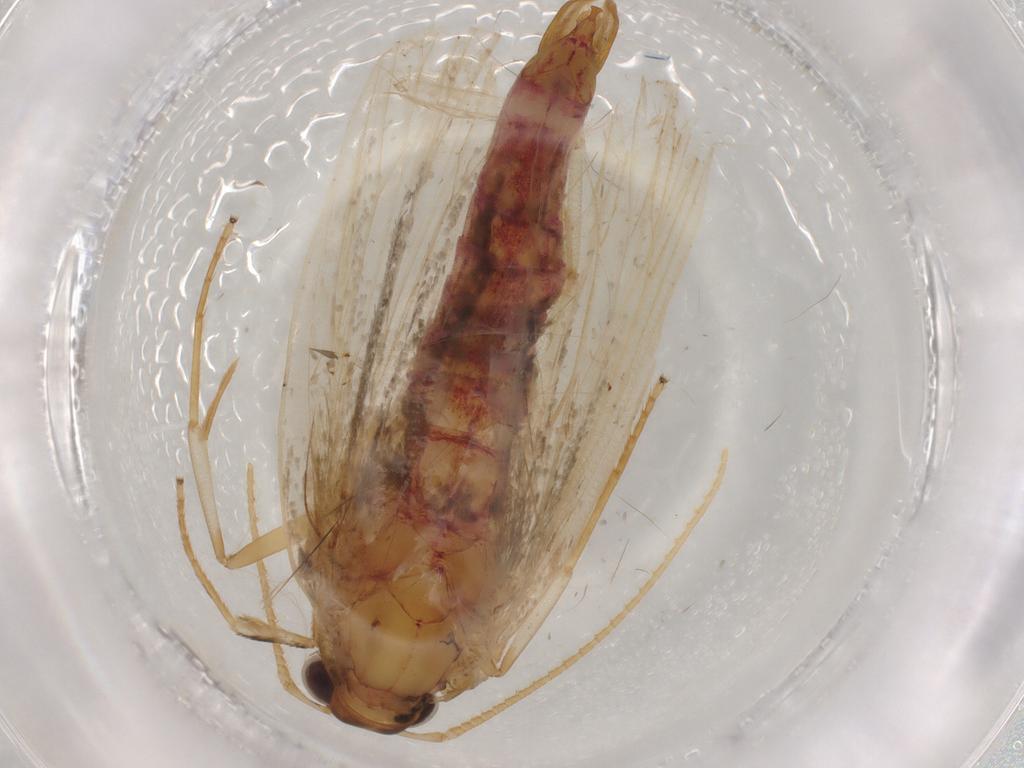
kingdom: Animalia
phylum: Arthropoda
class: Insecta
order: Lepidoptera
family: Lecithoceridae
